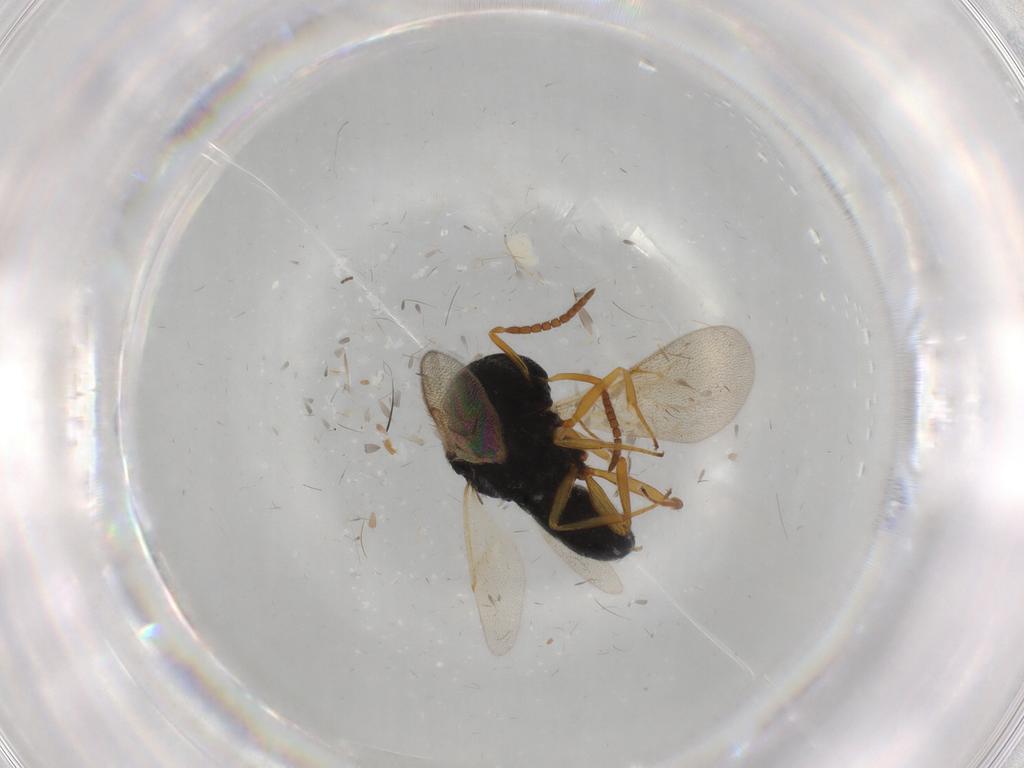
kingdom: Animalia
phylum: Arthropoda
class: Insecta
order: Hymenoptera
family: Scelionidae
